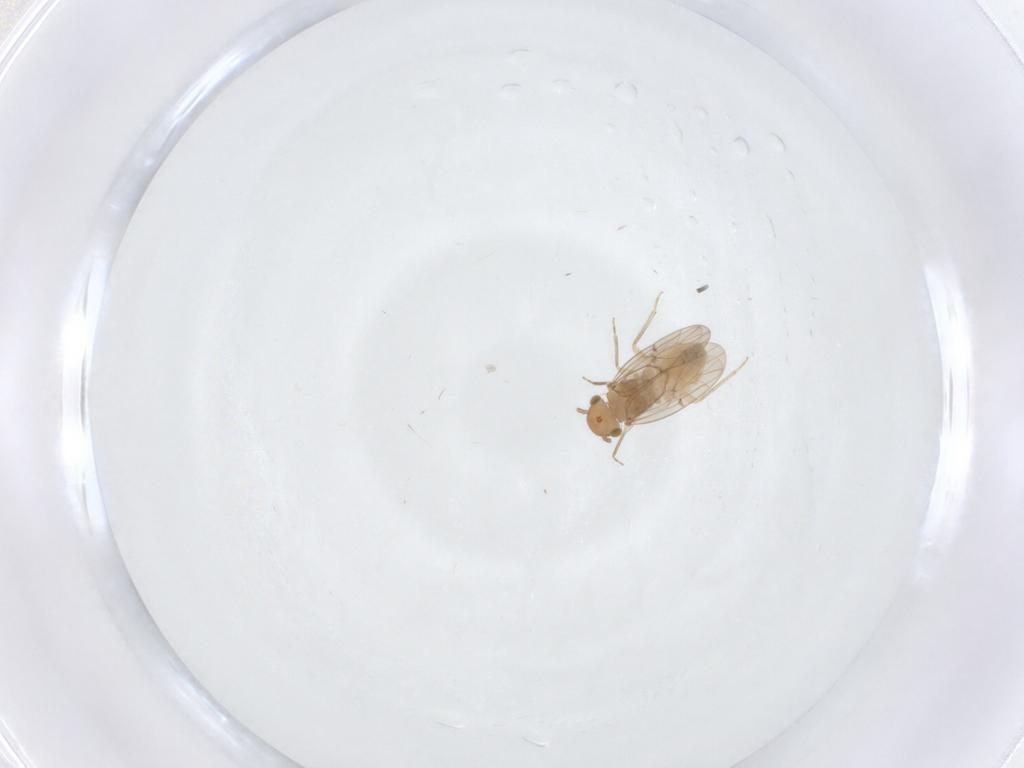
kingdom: Animalia
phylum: Arthropoda
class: Insecta
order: Psocodea
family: Ectopsocidae
